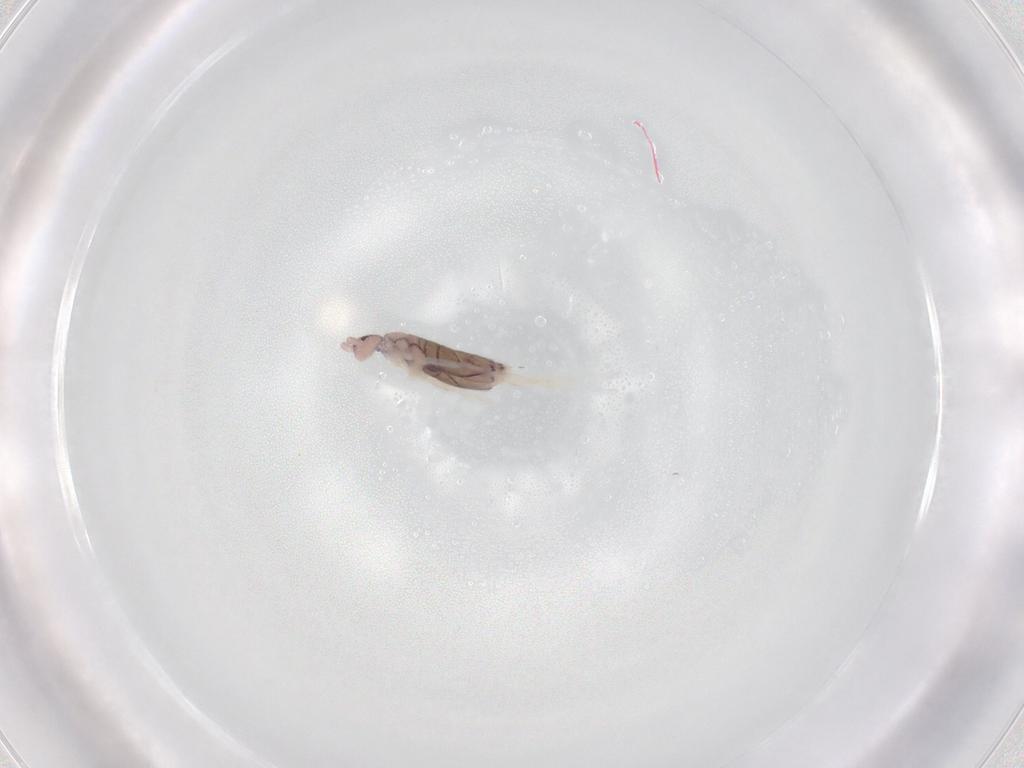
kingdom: Animalia
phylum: Arthropoda
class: Collembola
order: Entomobryomorpha
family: Entomobryidae
